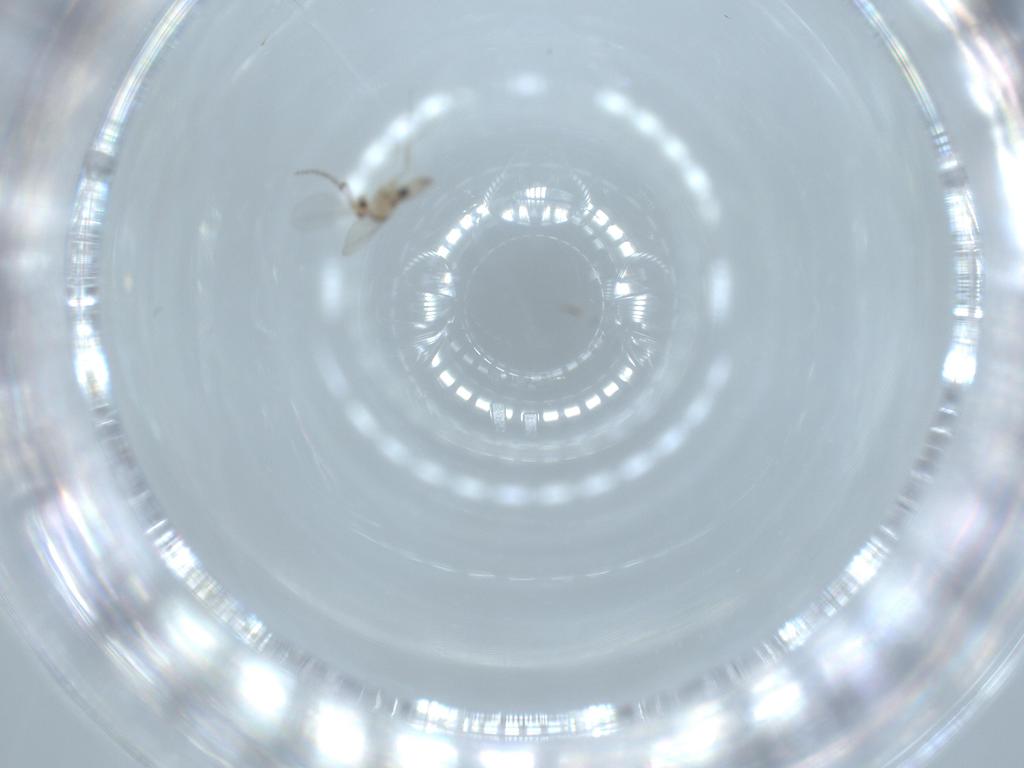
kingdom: Animalia
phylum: Arthropoda
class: Insecta
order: Diptera
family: Cecidomyiidae
